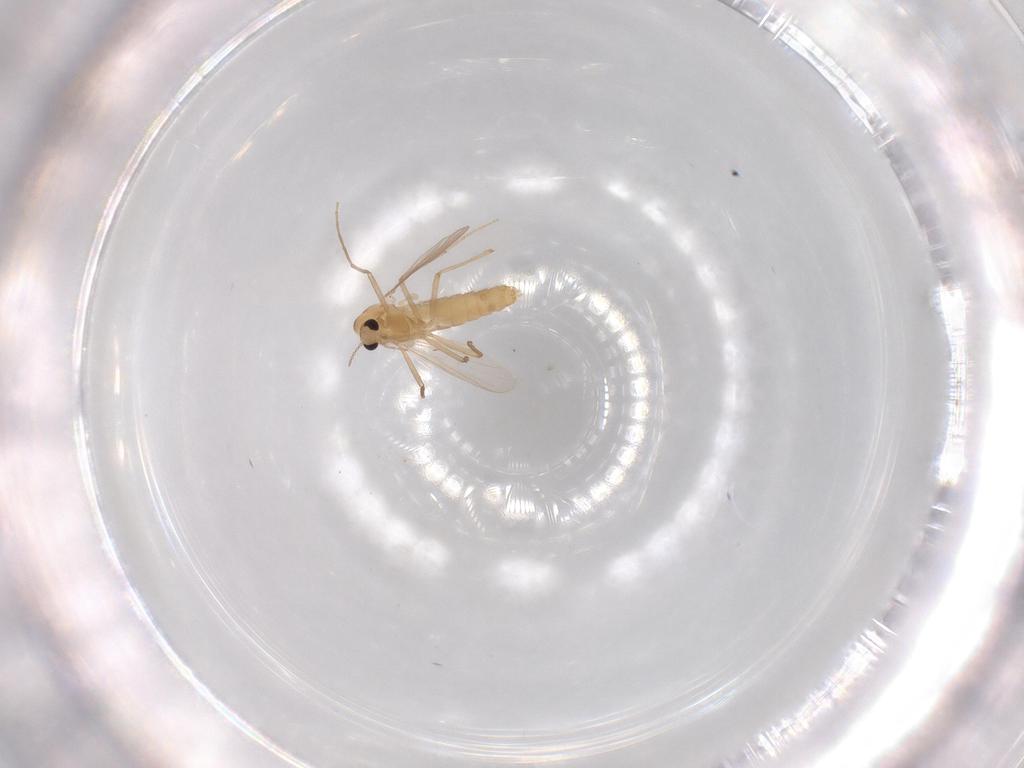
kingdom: Animalia
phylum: Arthropoda
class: Insecta
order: Diptera
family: Chironomidae
